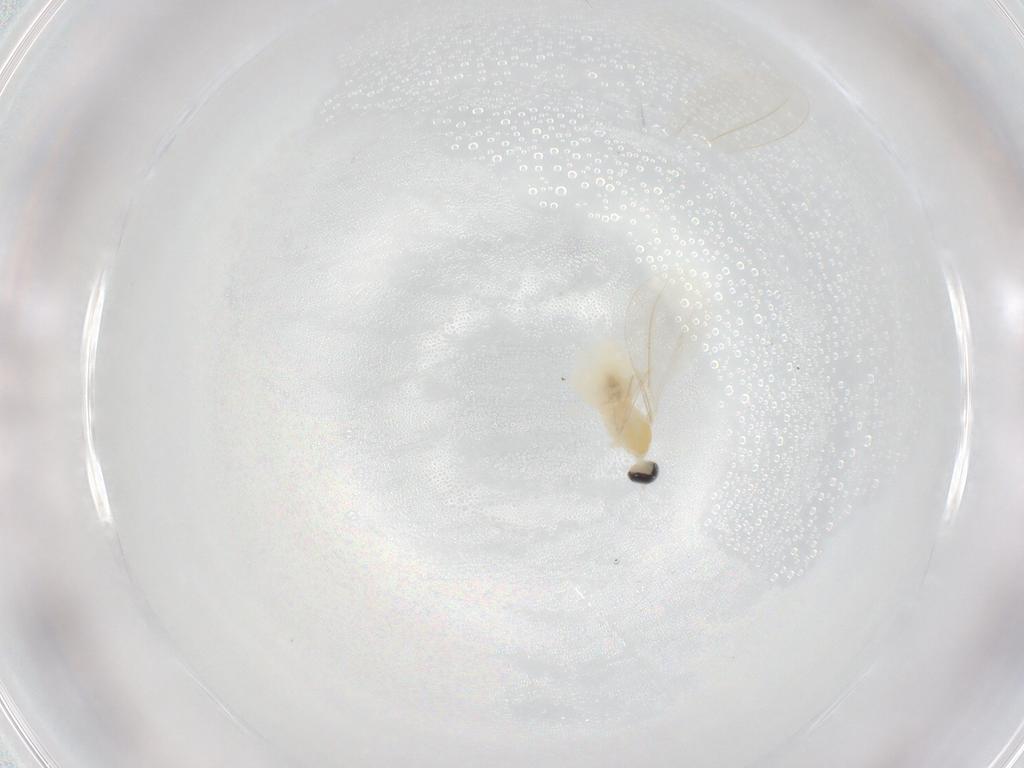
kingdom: Animalia
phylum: Arthropoda
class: Insecta
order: Diptera
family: Cecidomyiidae
